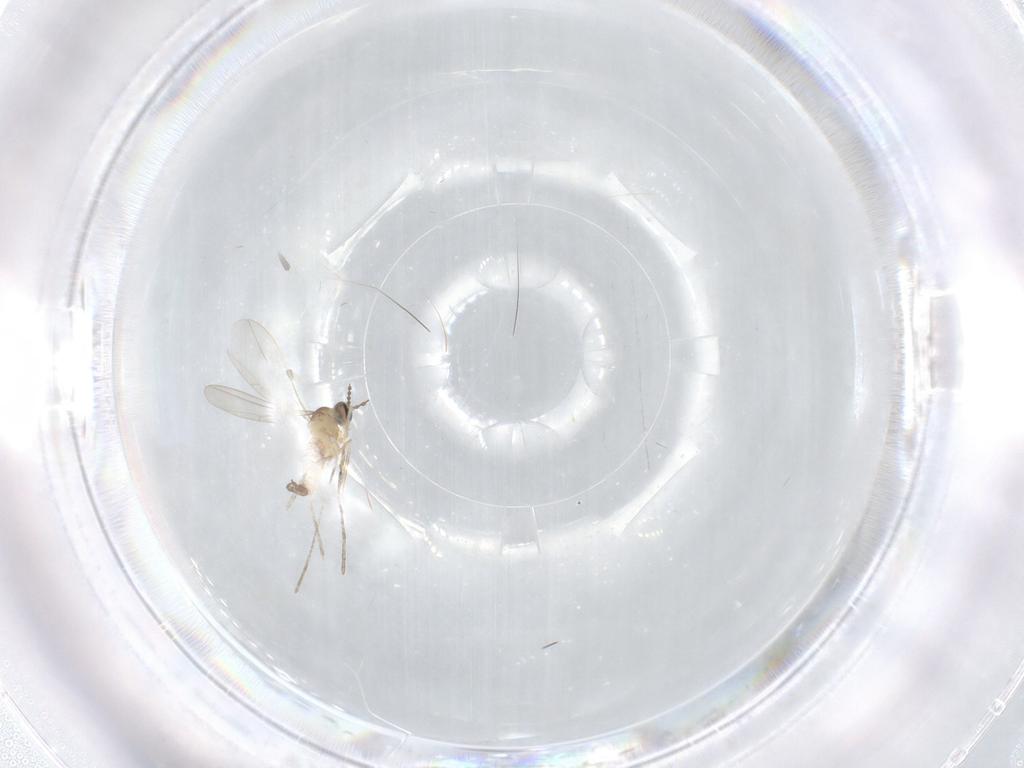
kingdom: Animalia
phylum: Arthropoda
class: Insecta
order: Diptera
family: Cecidomyiidae
